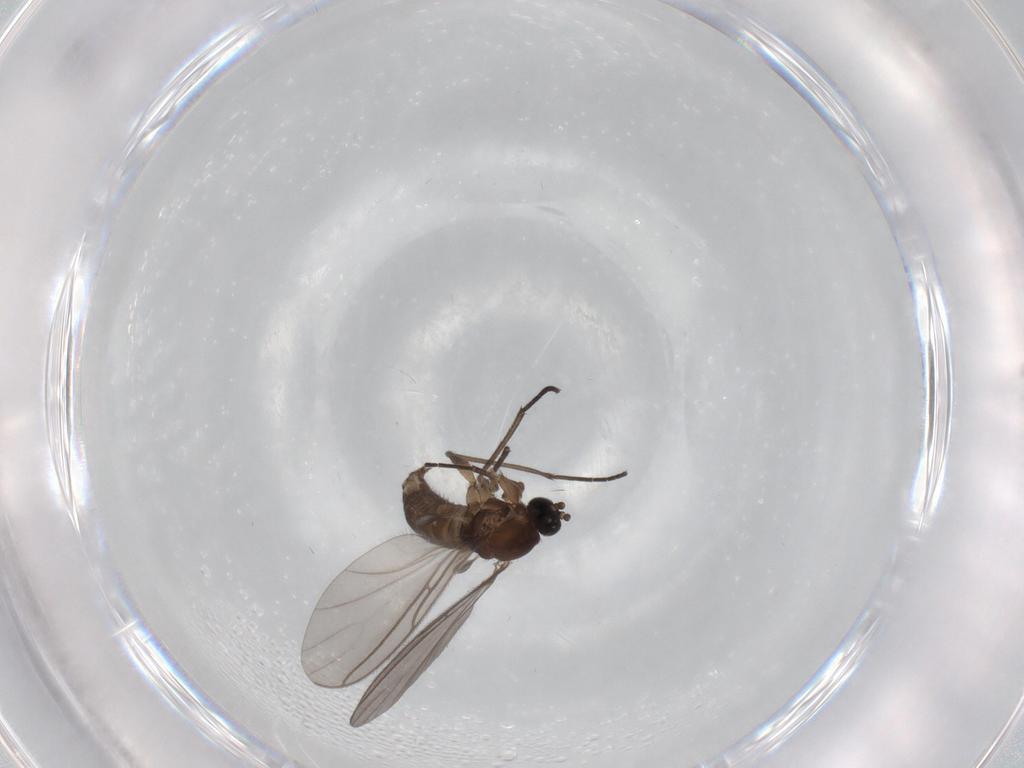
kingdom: Animalia
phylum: Arthropoda
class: Insecta
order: Diptera
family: Sciaridae
